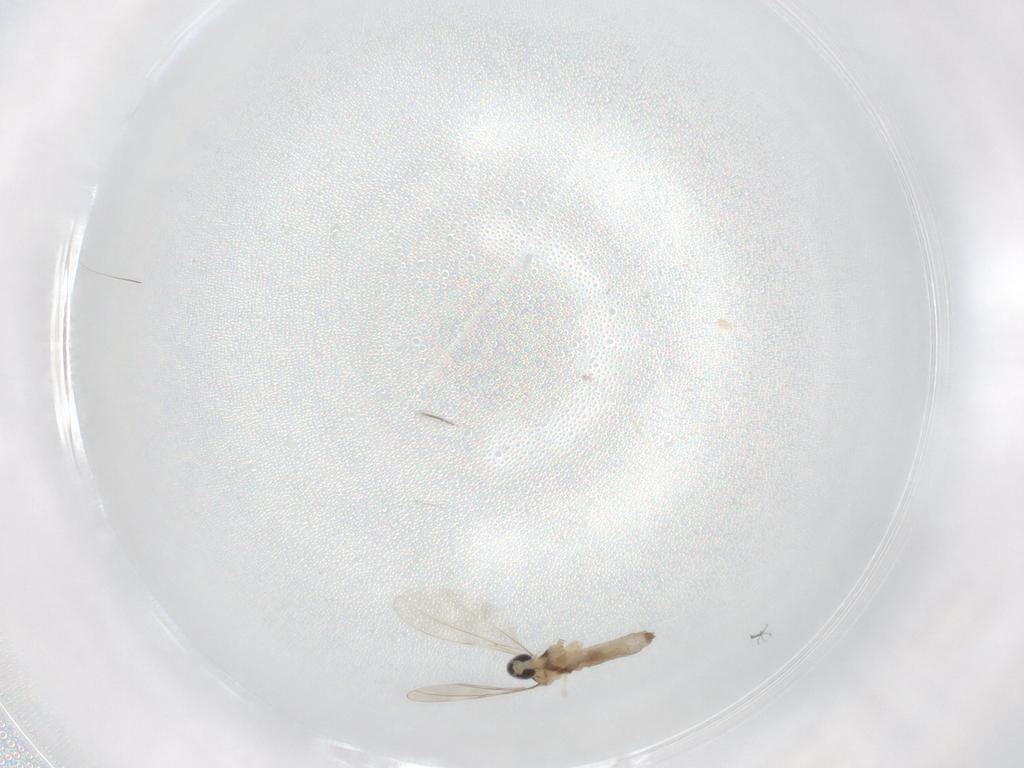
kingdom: Animalia
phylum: Arthropoda
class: Insecta
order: Diptera
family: Cecidomyiidae
